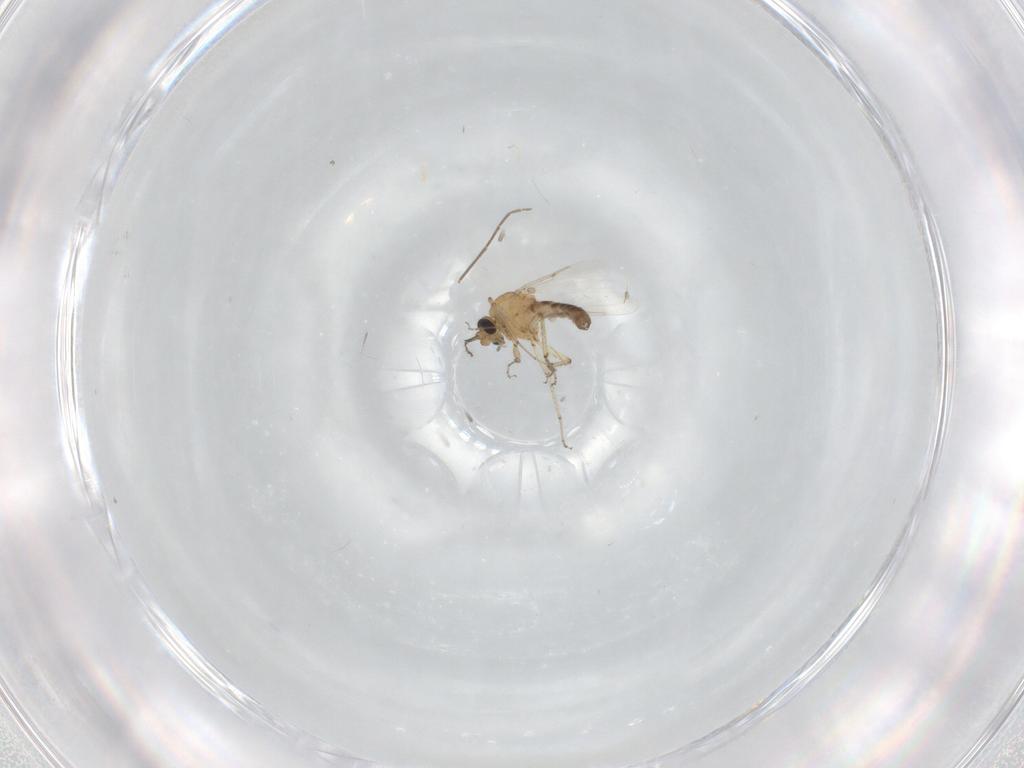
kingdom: Animalia
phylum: Arthropoda
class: Insecta
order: Diptera
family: Ceratopogonidae
